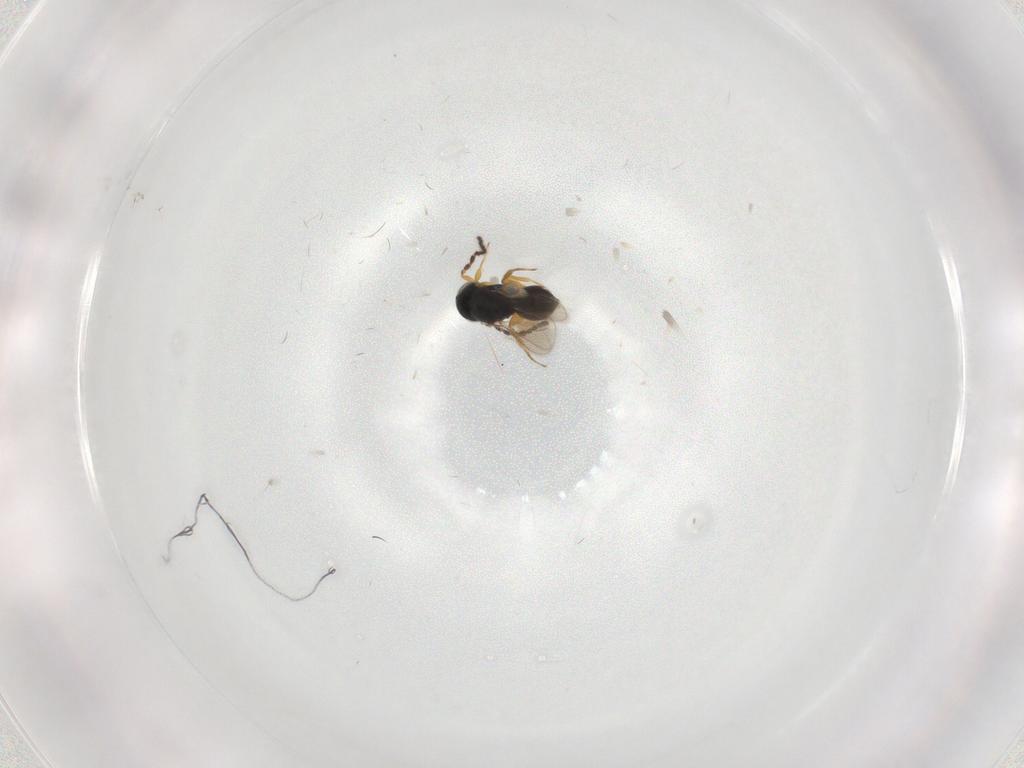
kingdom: Animalia
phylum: Arthropoda
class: Insecta
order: Hymenoptera
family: Scelionidae
